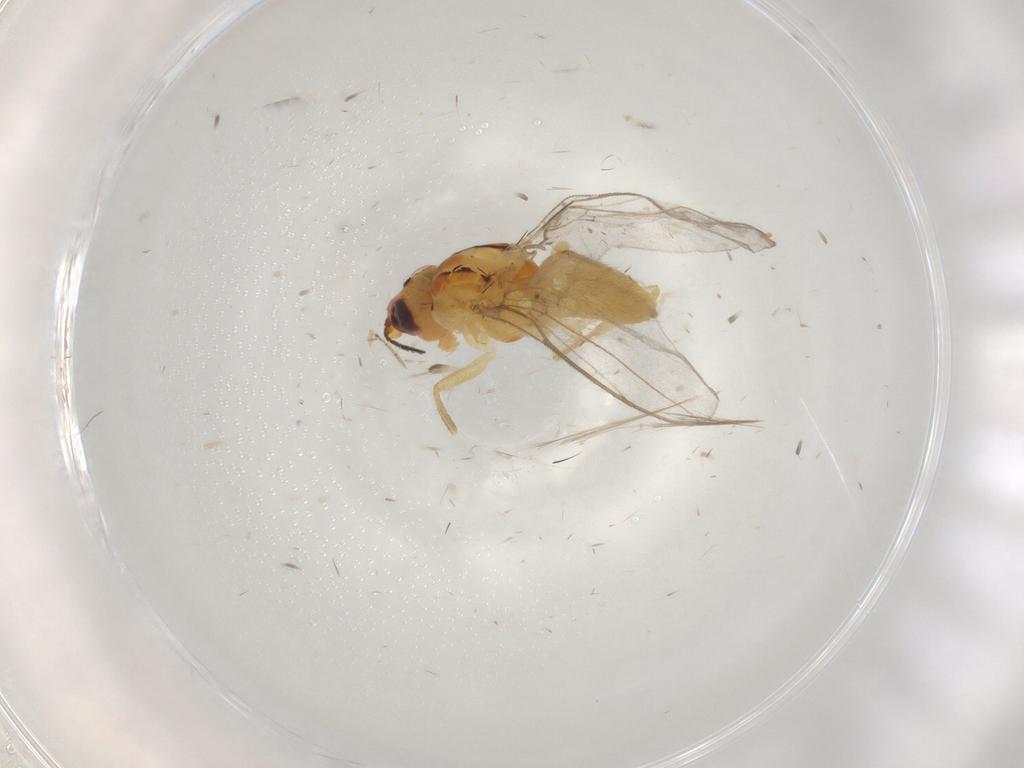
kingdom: Animalia
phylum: Arthropoda
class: Insecta
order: Diptera
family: Chloropidae
